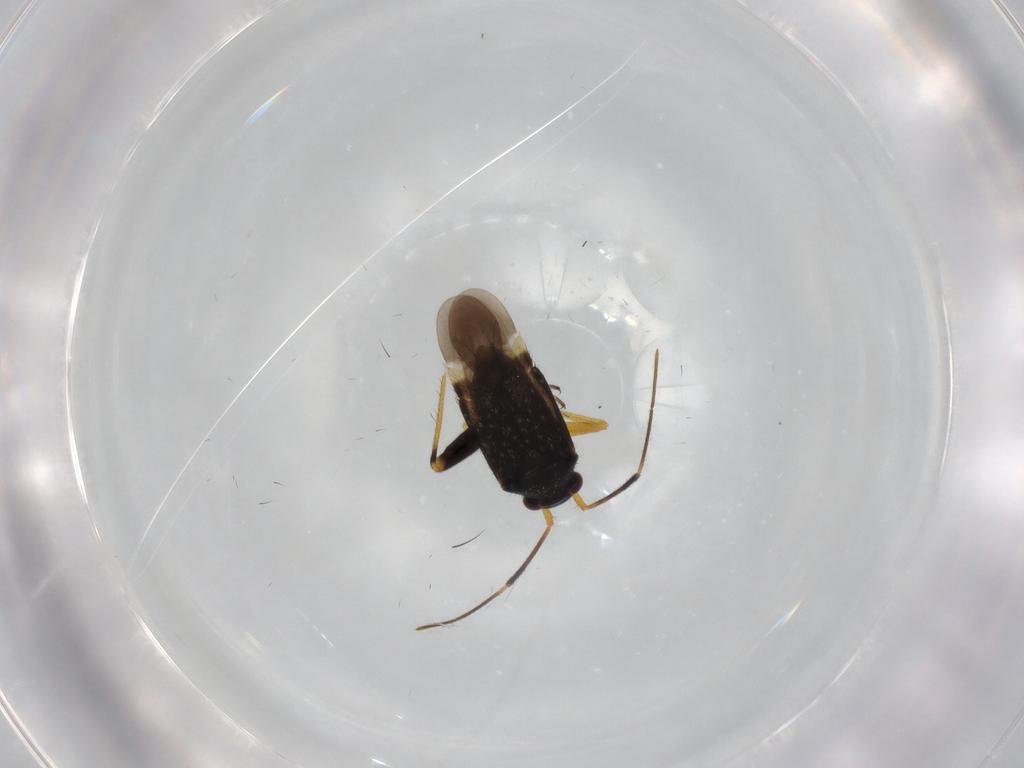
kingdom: Animalia
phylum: Arthropoda
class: Insecta
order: Hemiptera
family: Miridae
